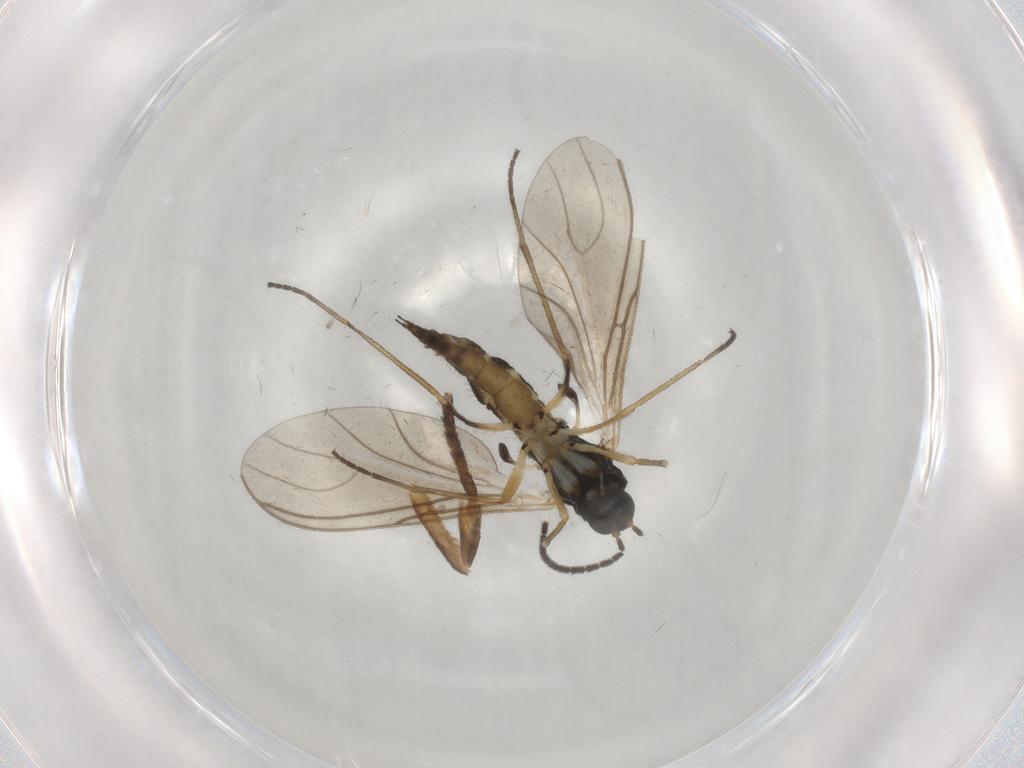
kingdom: Animalia
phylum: Arthropoda
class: Insecta
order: Diptera
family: Sciaridae
